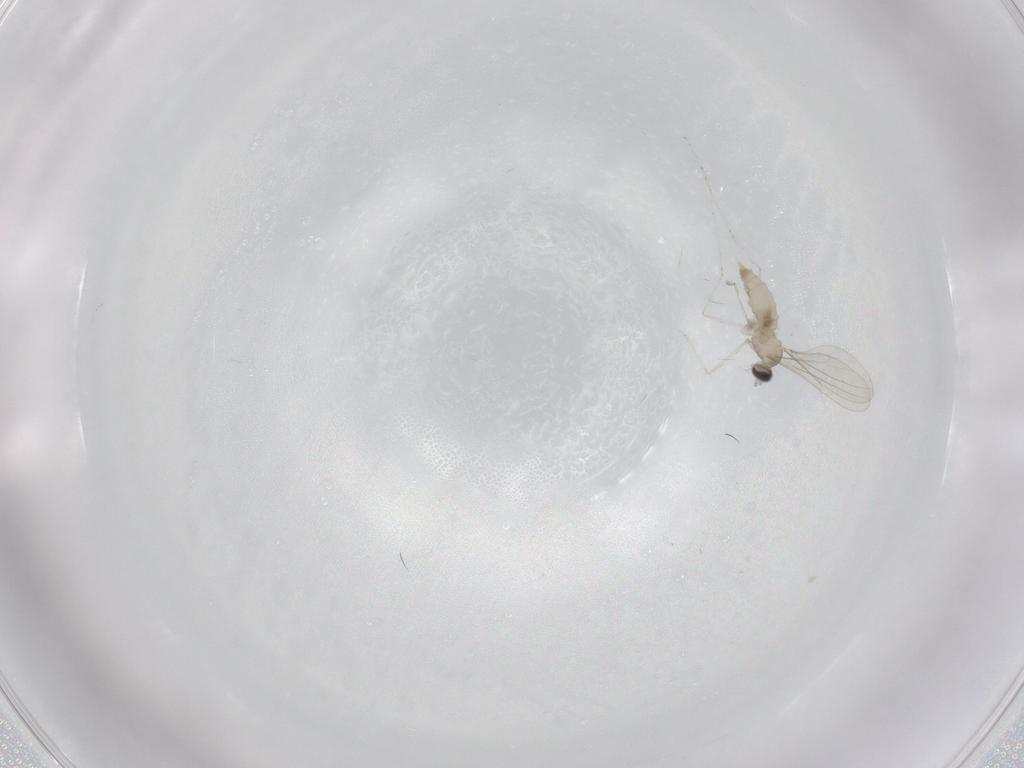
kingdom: Animalia
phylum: Arthropoda
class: Insecta
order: Diptera
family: Cecidomyiidae
